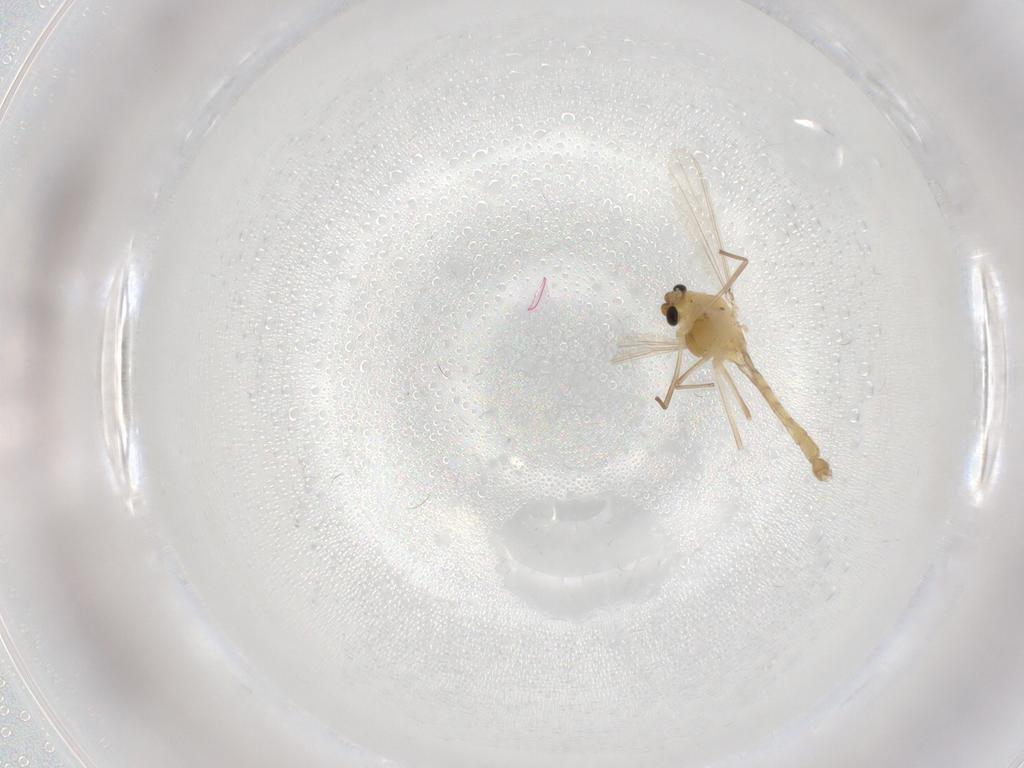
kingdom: Animalia
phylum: Arthropoda
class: Insecta
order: Diptera
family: Chironomidae
